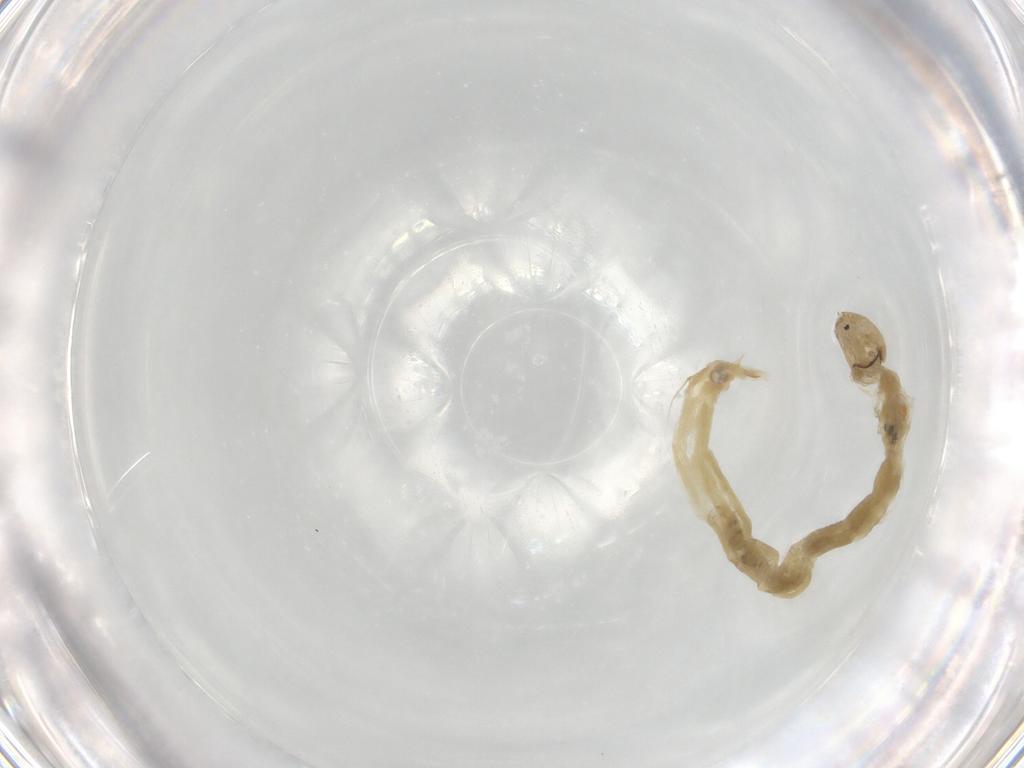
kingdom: Animalia
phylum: Arthropoda
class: Insecta
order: Diptera
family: Chironomidae
